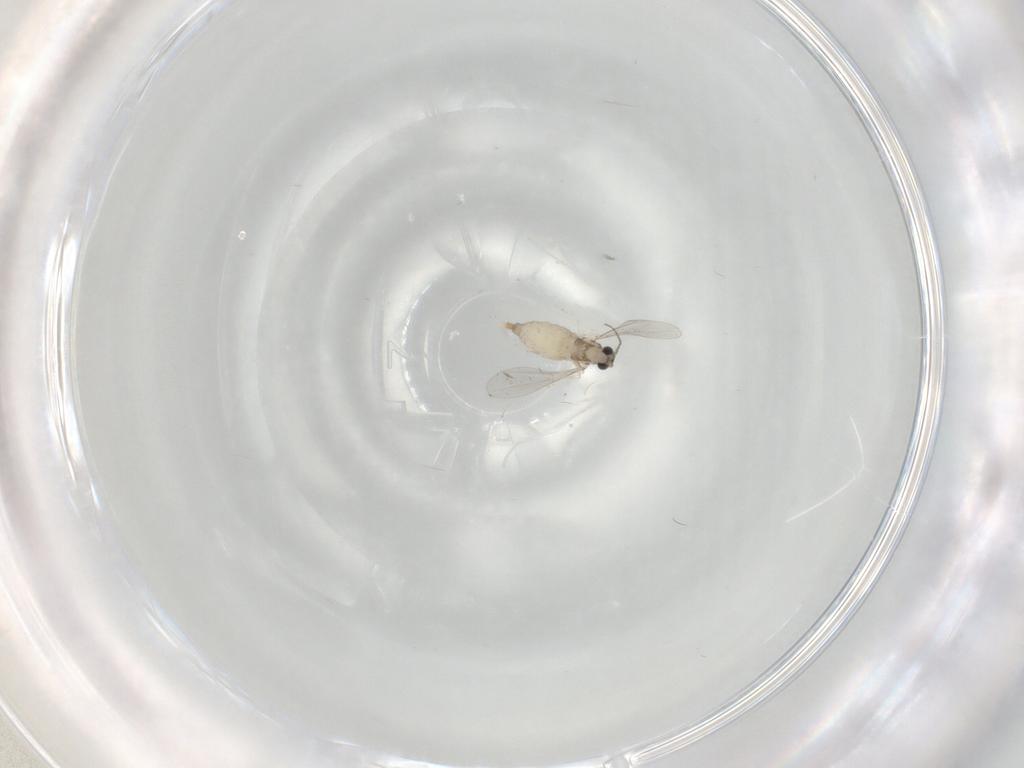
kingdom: Animalia
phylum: Arthropoda
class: Insecta
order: Diptera
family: Phoridae
